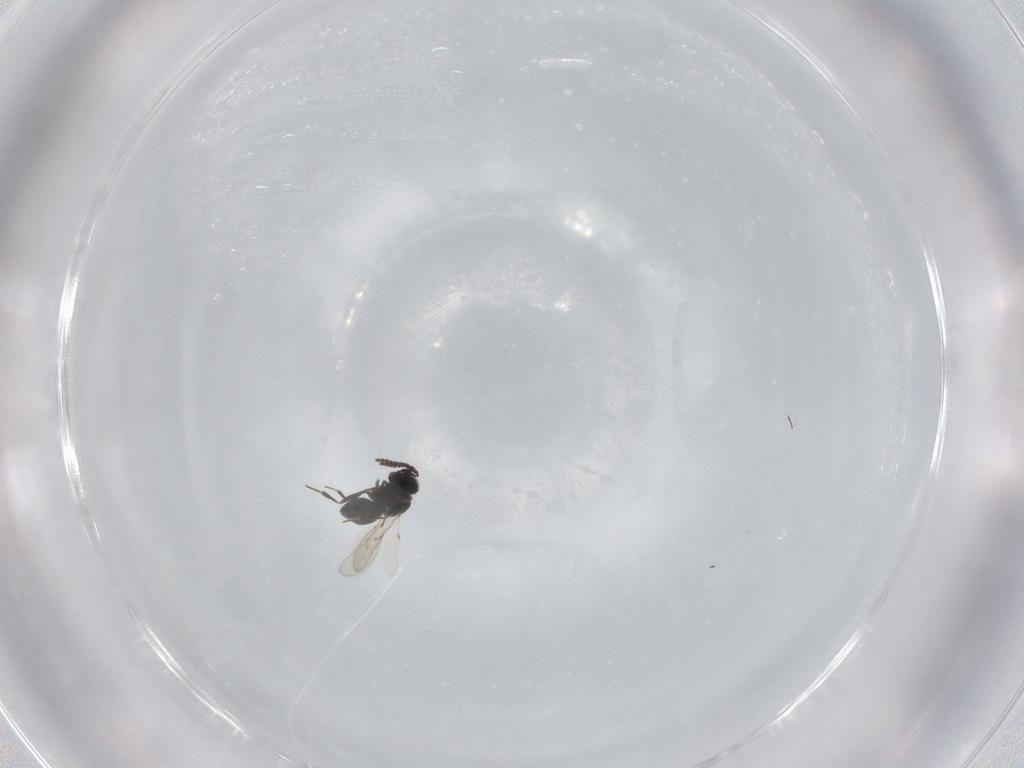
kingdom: Animalia
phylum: Arthropoda
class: Insecta
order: Hymenoptera
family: Scelionidae
